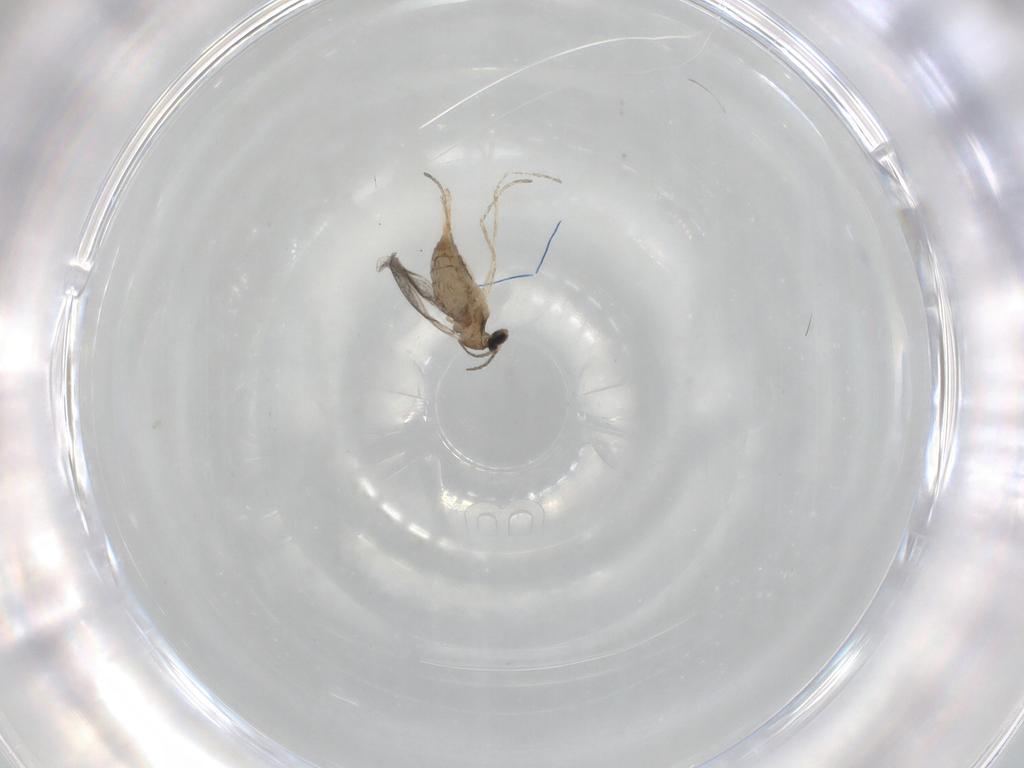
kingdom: Animalia
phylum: Arthropoda
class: Insecta
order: Diptera
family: Cecidomyiidae
